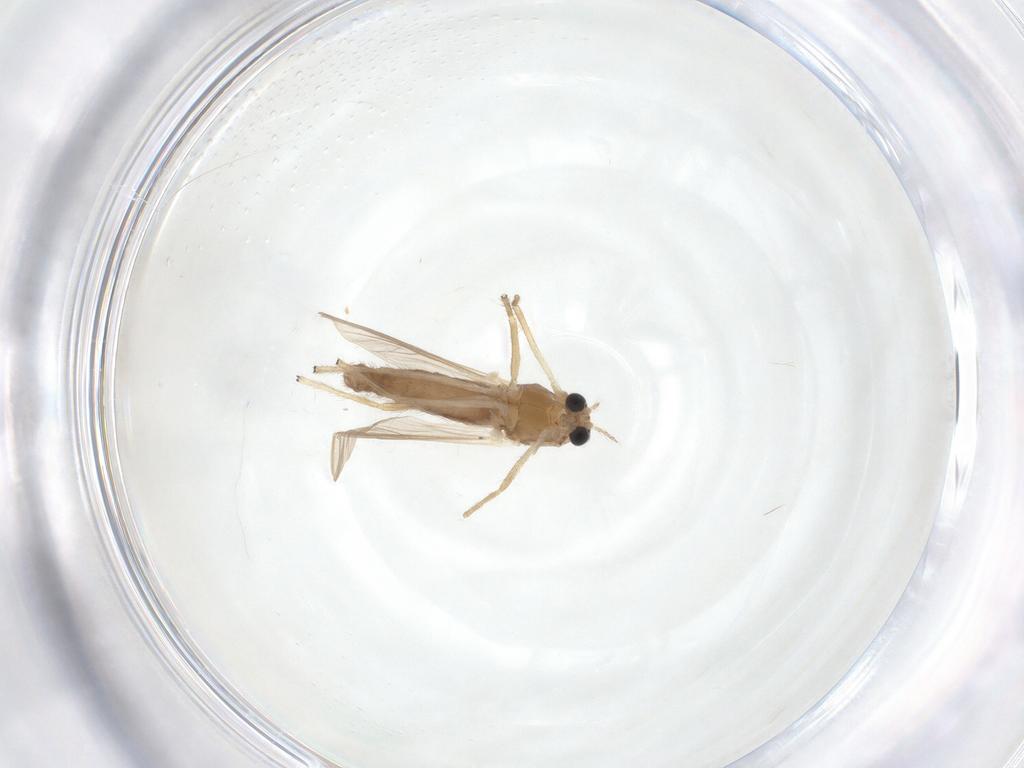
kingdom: Animalia
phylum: Arthropoda
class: Insecta
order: Diptera
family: Chironomidae
